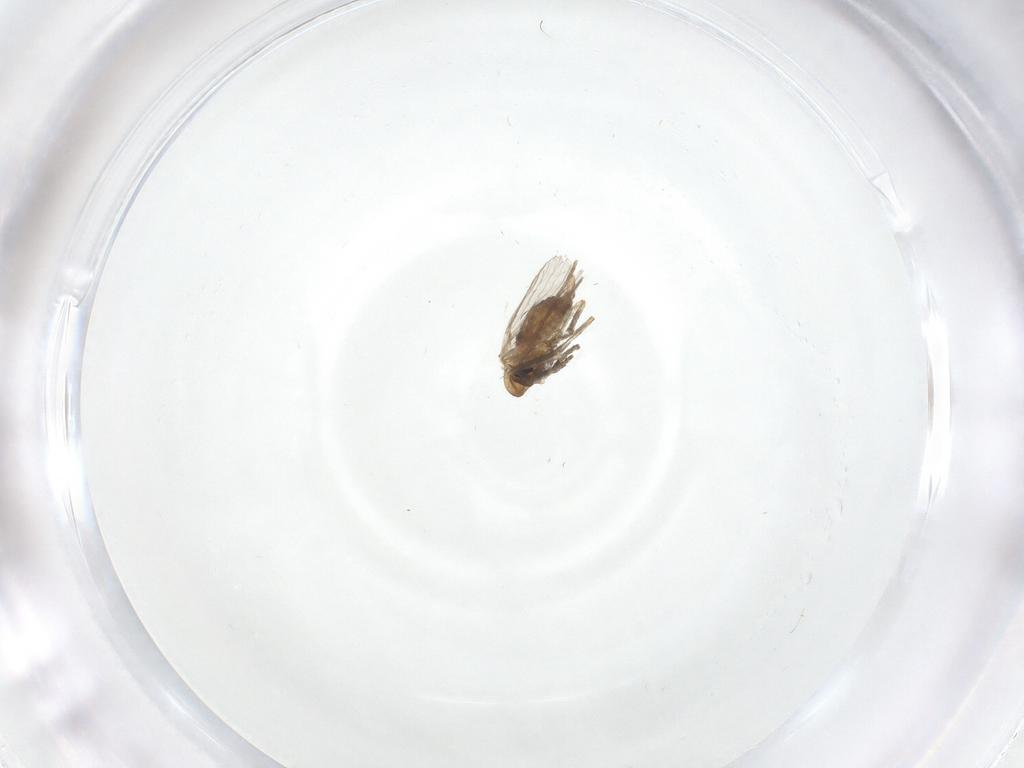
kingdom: Animalia
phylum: Arthropoda
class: Insecta
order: Diptera
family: Psychodidae
